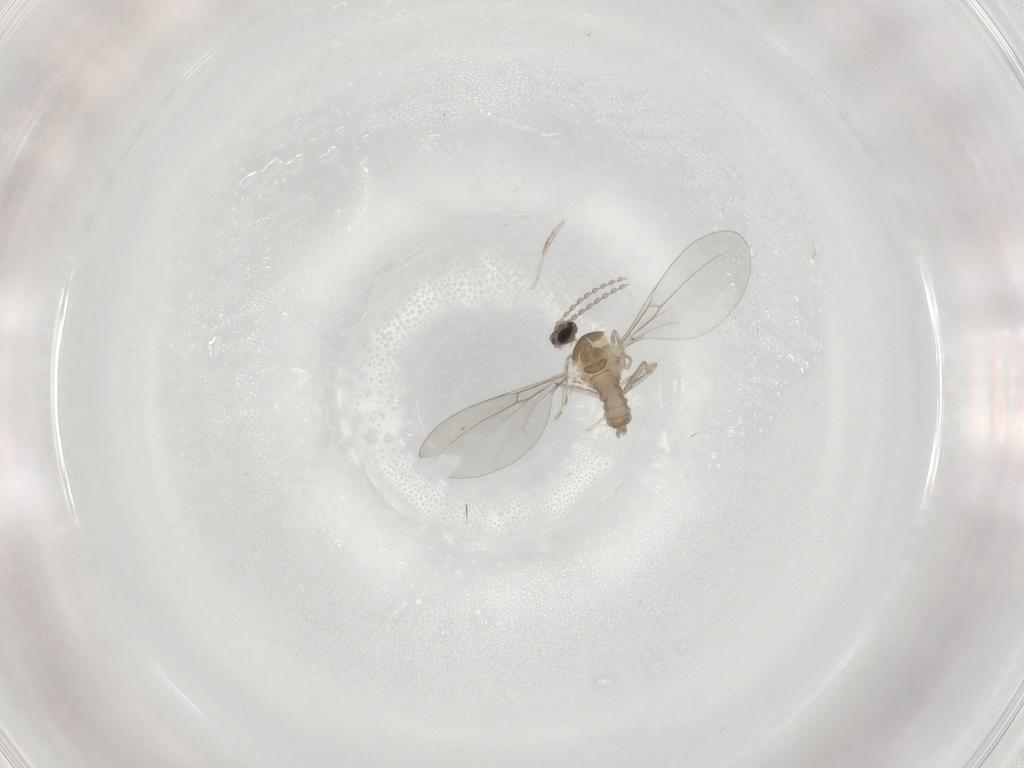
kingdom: Animalia
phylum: Arthropoda
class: Insecta
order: Diptera
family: Cecidomyiidae
